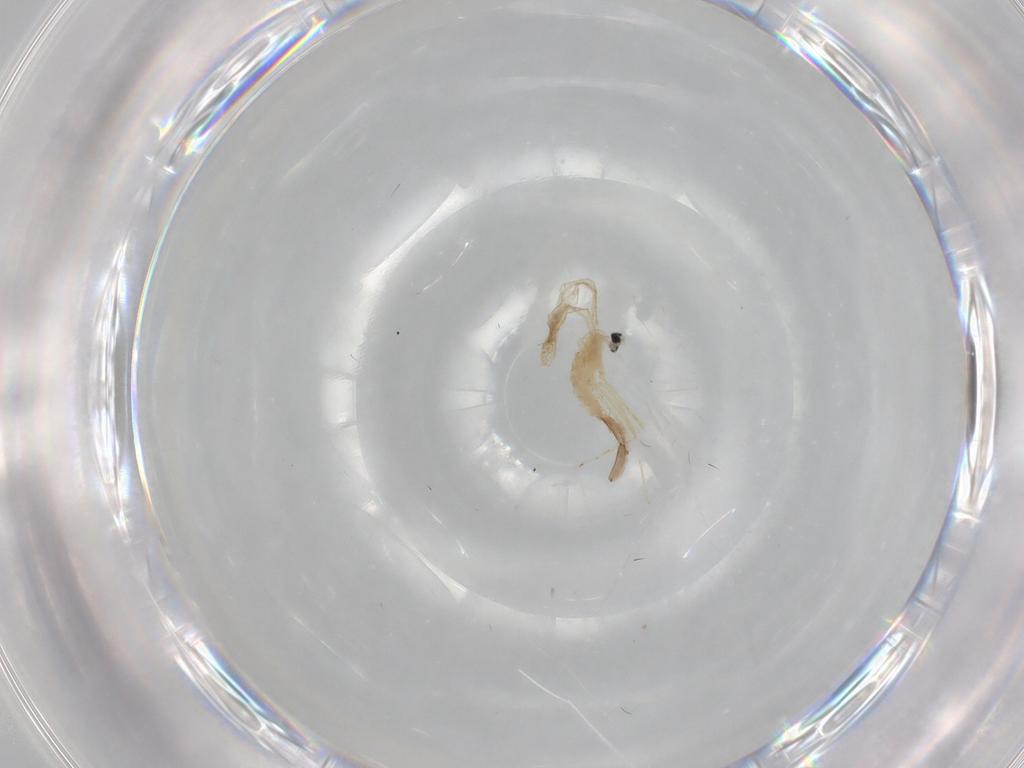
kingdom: Animalia
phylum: Arthropoda
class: Insecta
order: Diptera
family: Cecidomyiidae
